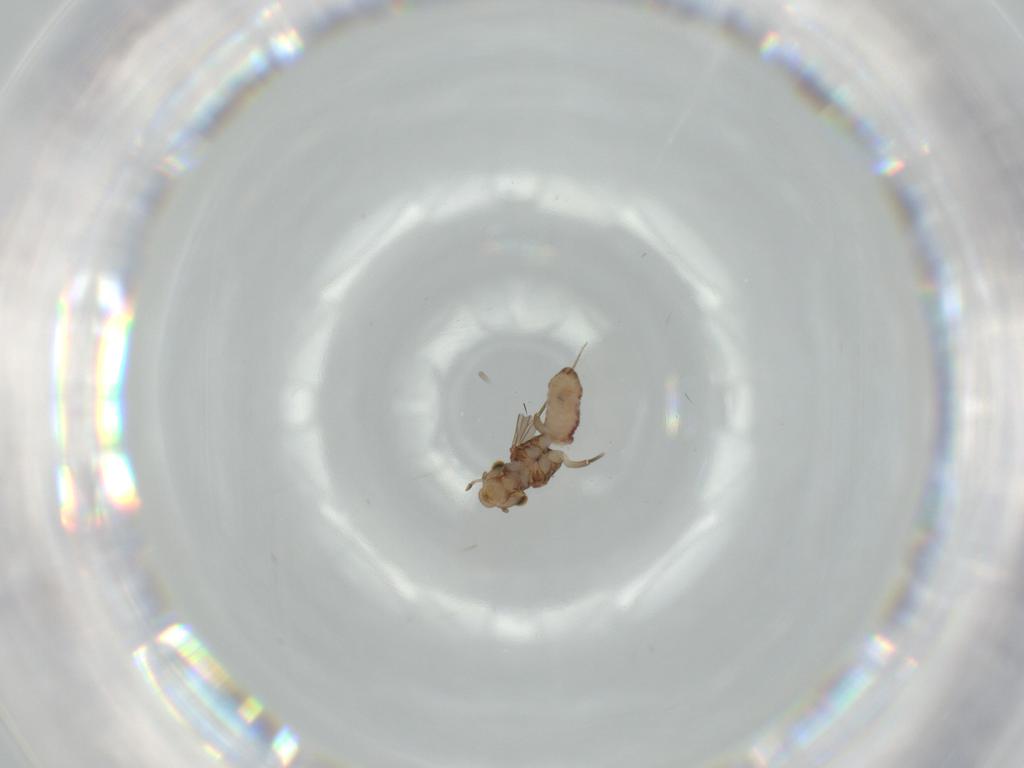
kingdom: Animalia
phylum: Arthropoda
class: Insecta
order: Psocodea
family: Lepidopsocidae
